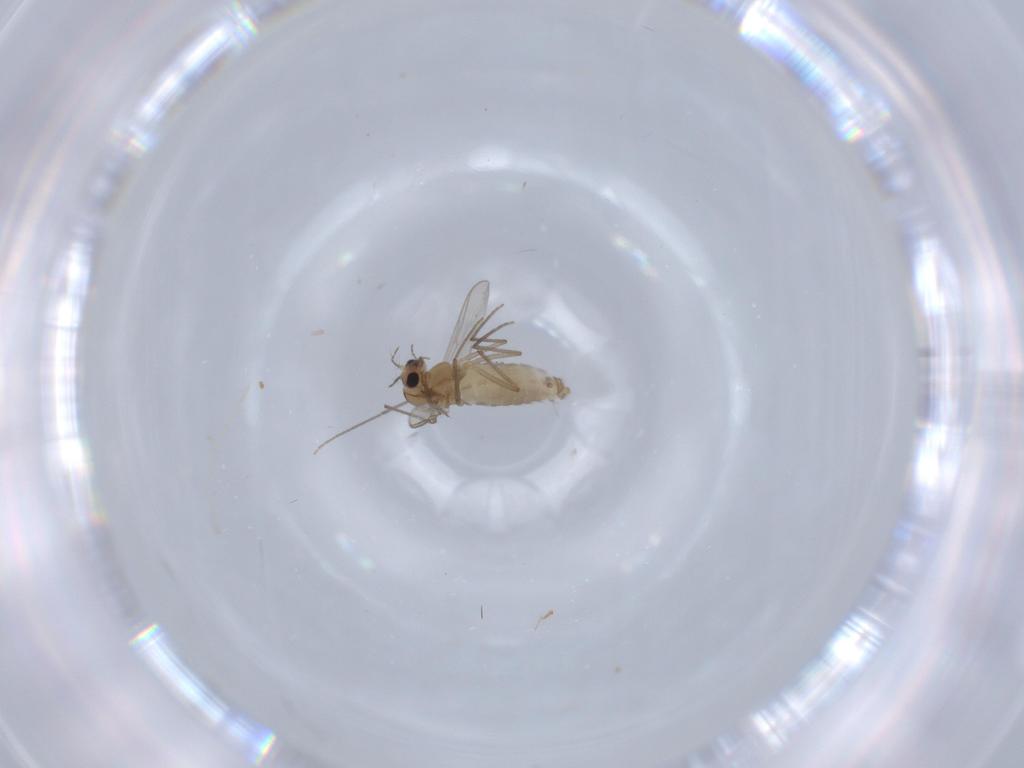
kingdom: Animalia
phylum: Arthropoda
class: Insecta
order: Diptera
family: Chironomidae
